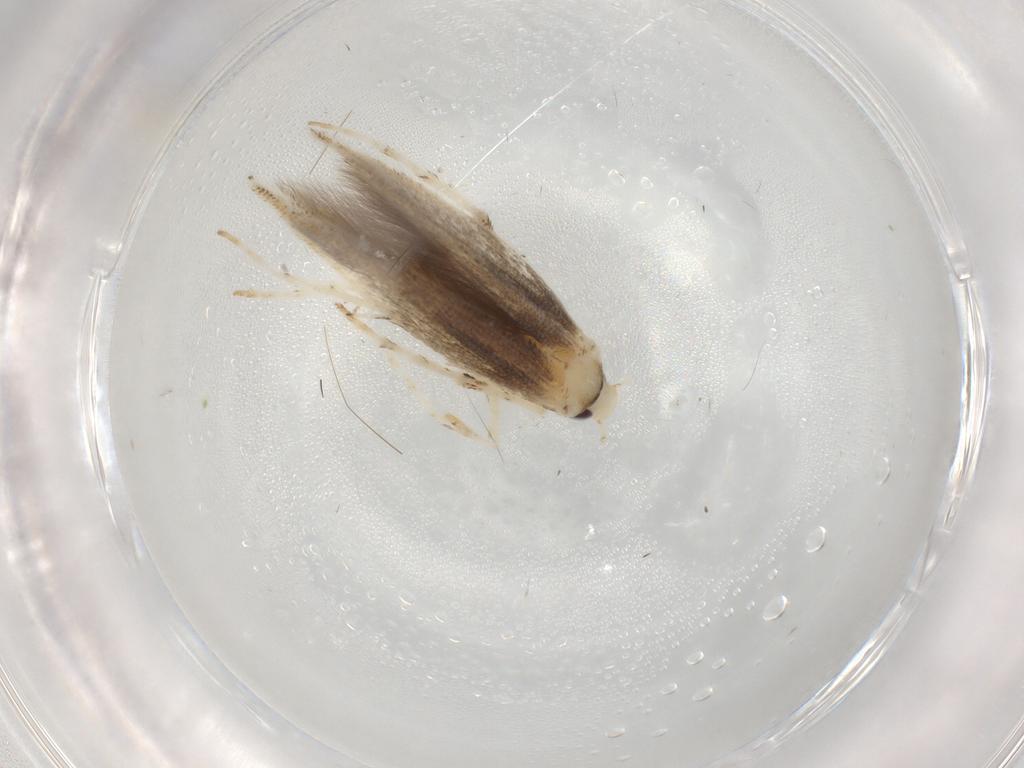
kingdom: Animalia
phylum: Arthropoda
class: Insecta
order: Lepidoptera
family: Gracillariidae
